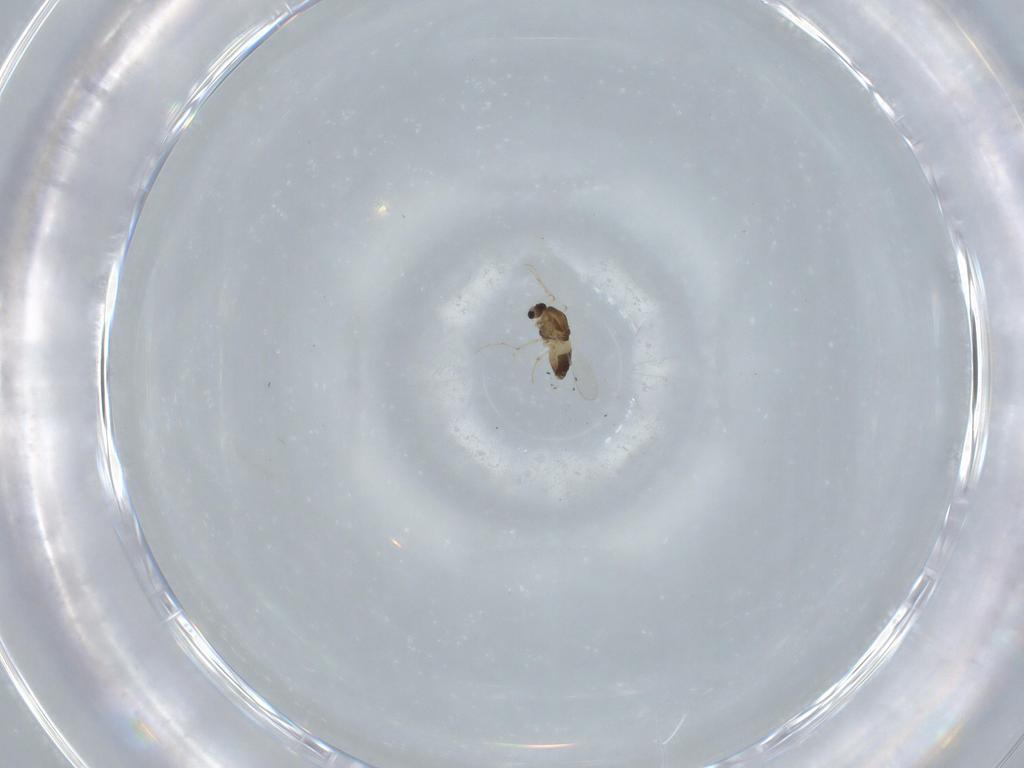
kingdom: Animalia
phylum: Arthropoda
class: Insecta
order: Diptera
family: Chironomidae
